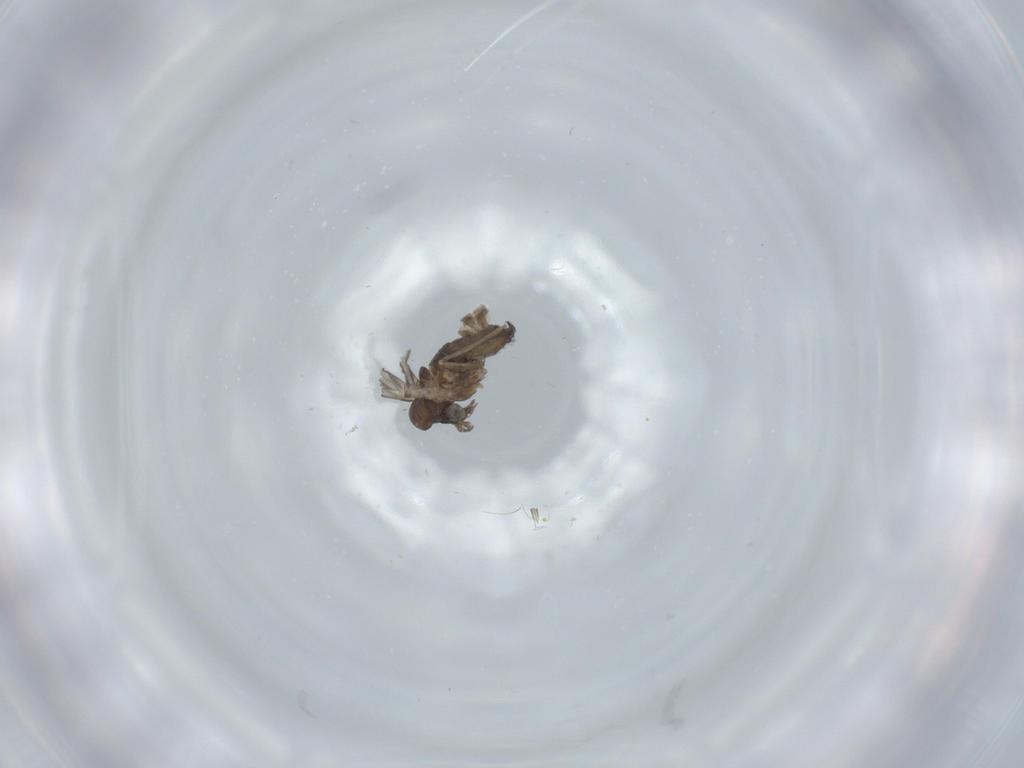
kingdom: Animalia
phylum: Arthropoda
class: Insecta
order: Diptera
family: Psychodidae
